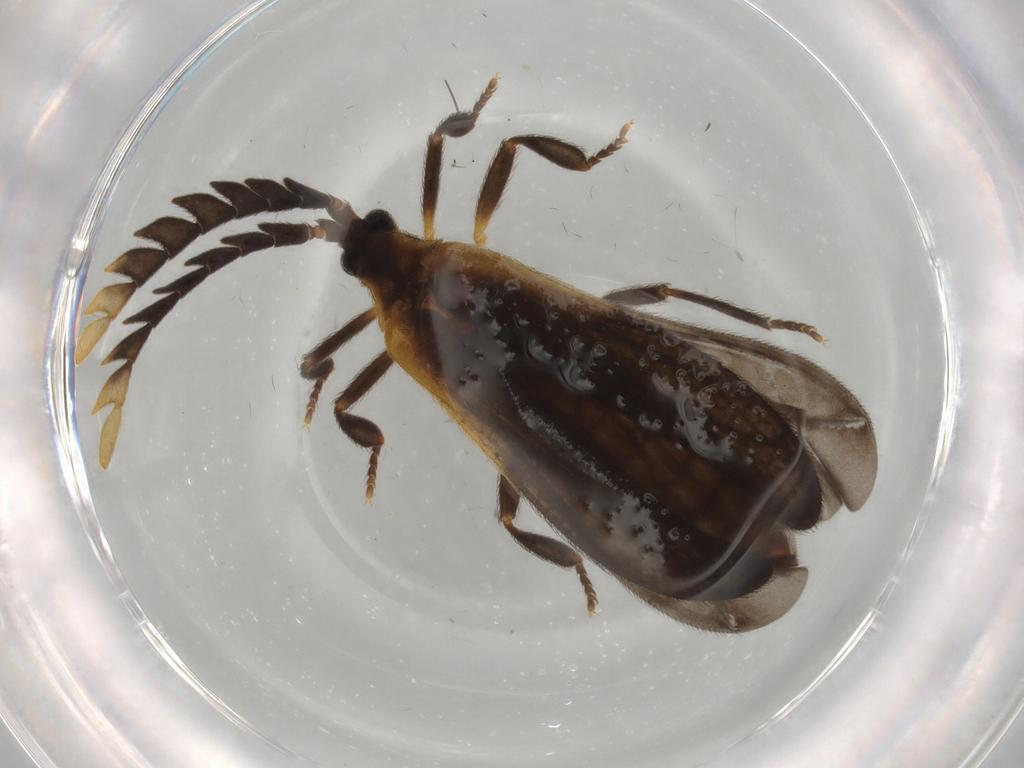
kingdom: Animalia
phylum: Arthropoda
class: Insecta
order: Coleoptera
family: Lycidae
